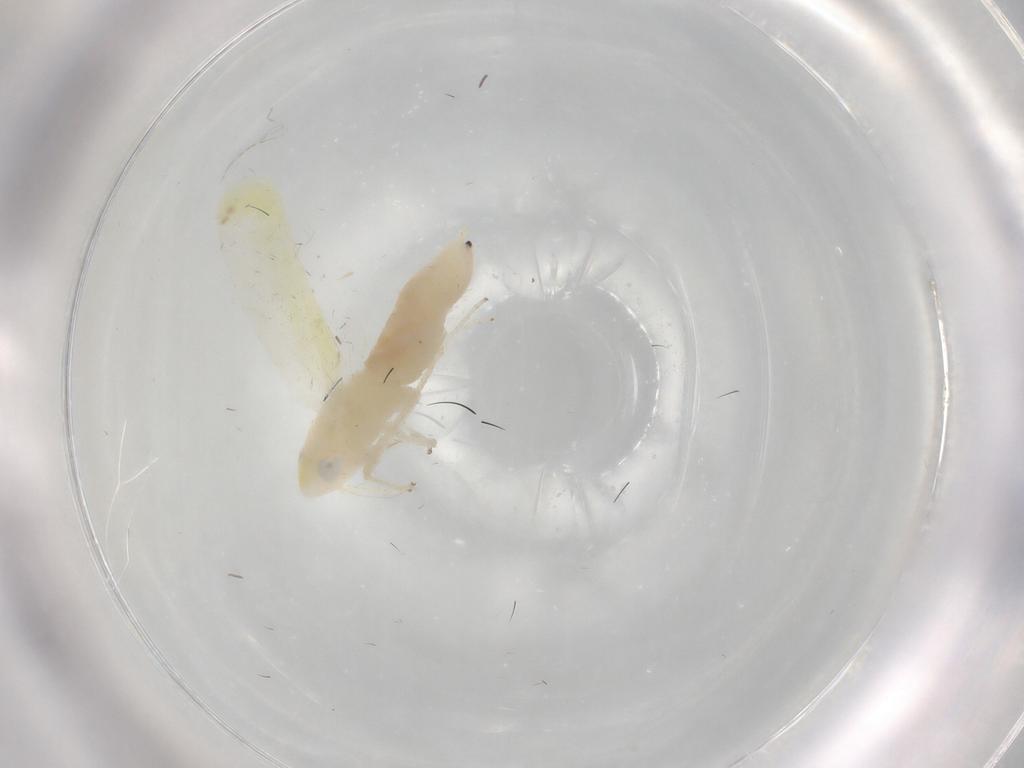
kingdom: Animalia
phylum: Arthropoda
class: Insecta
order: Hemiptera
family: Cicadellidae
